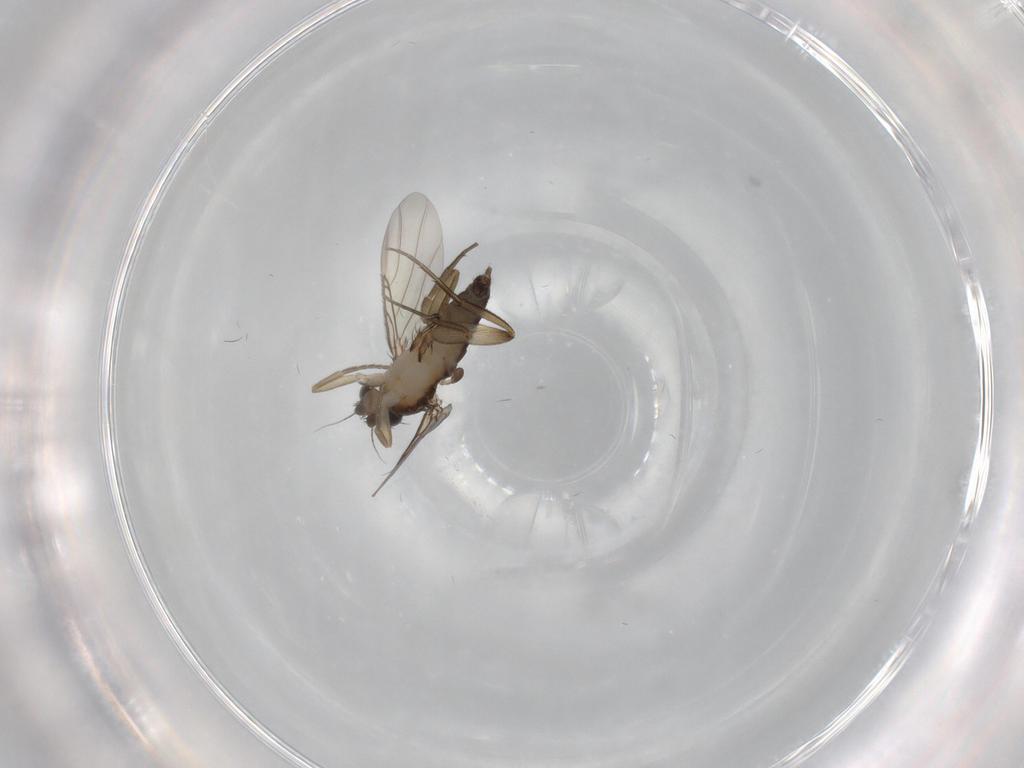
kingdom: Animalia
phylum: Arthropoda
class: Insecta
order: Diptera
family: Phoridae
